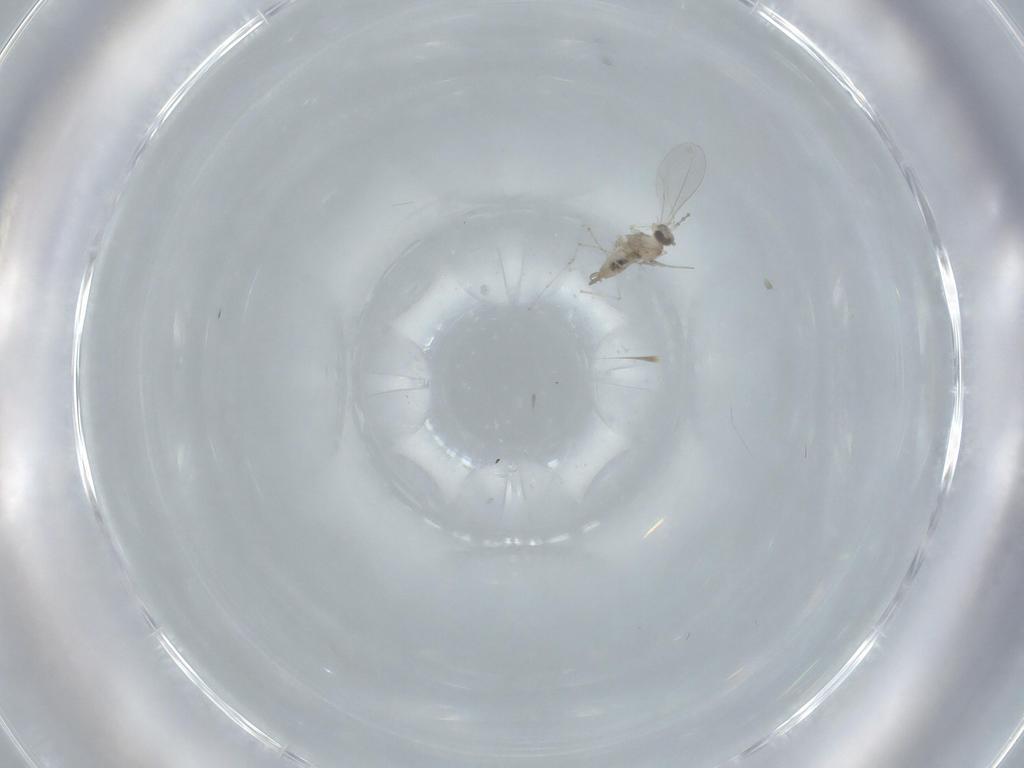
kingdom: Animalia
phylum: Arthropoda
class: Insecta
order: Diptera
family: Cecidomyiidae
